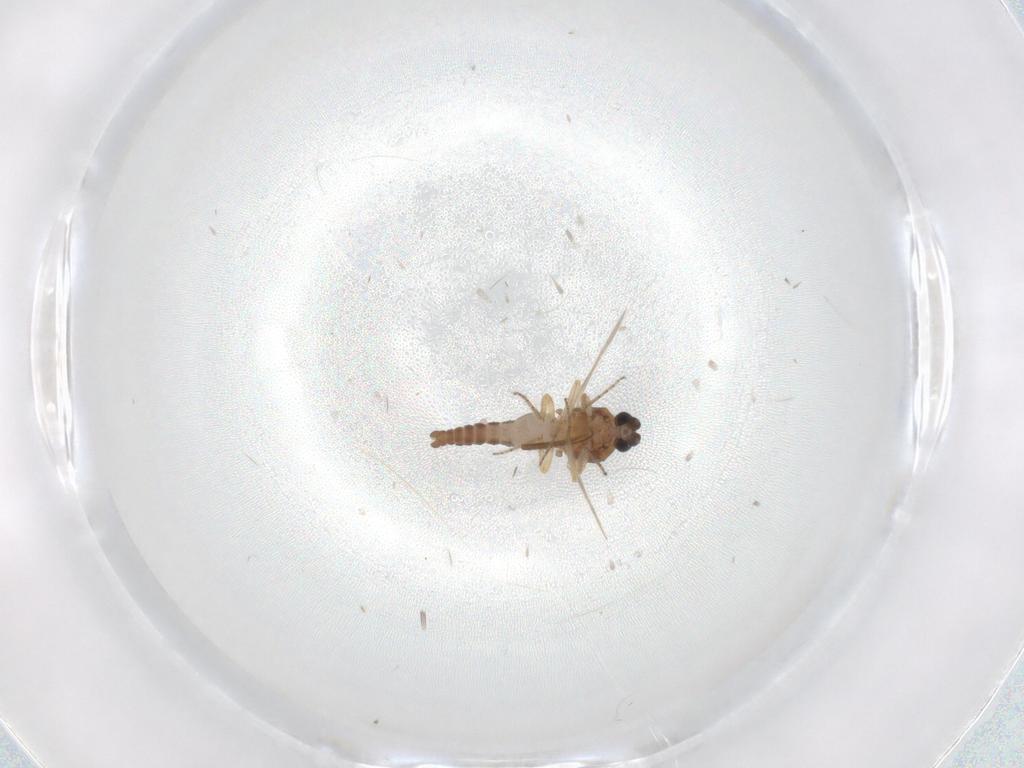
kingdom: Animalia
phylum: Arthropoda
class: Insecta
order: Diptera
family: Ceratopogonidae
